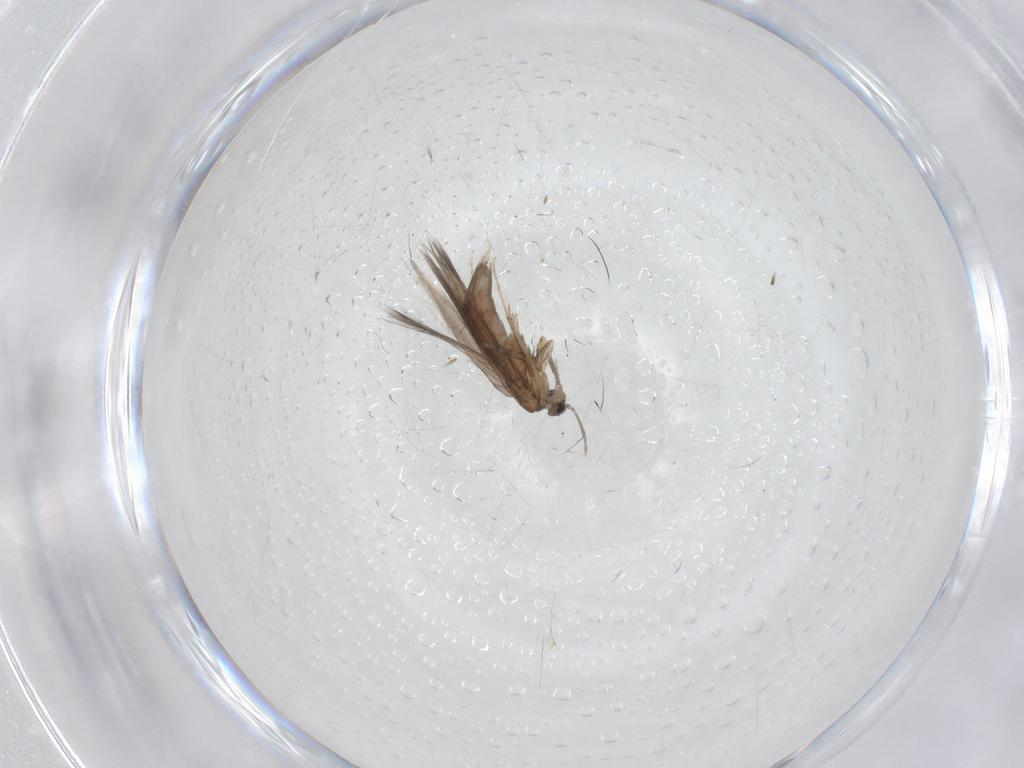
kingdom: Animalia
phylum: Arthropoda
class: Insecta
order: Trichoptera
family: Hydroptilidae
